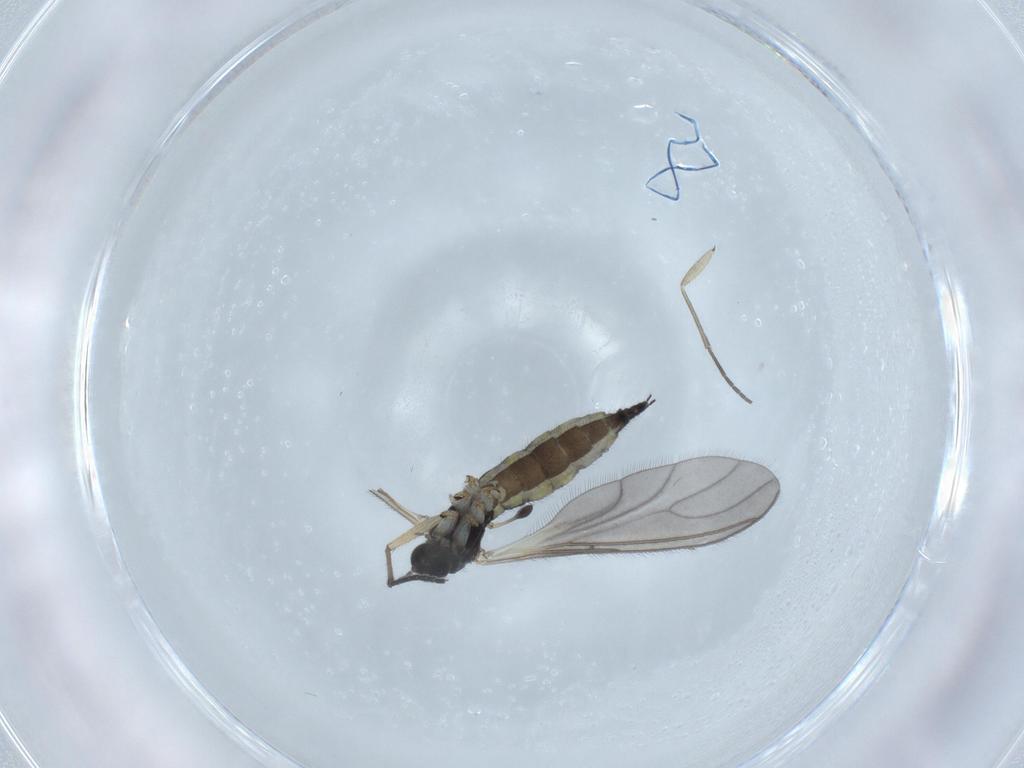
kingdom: Animalia
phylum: Arthropoda
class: Insecta
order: Diptera
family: Sciaridae
